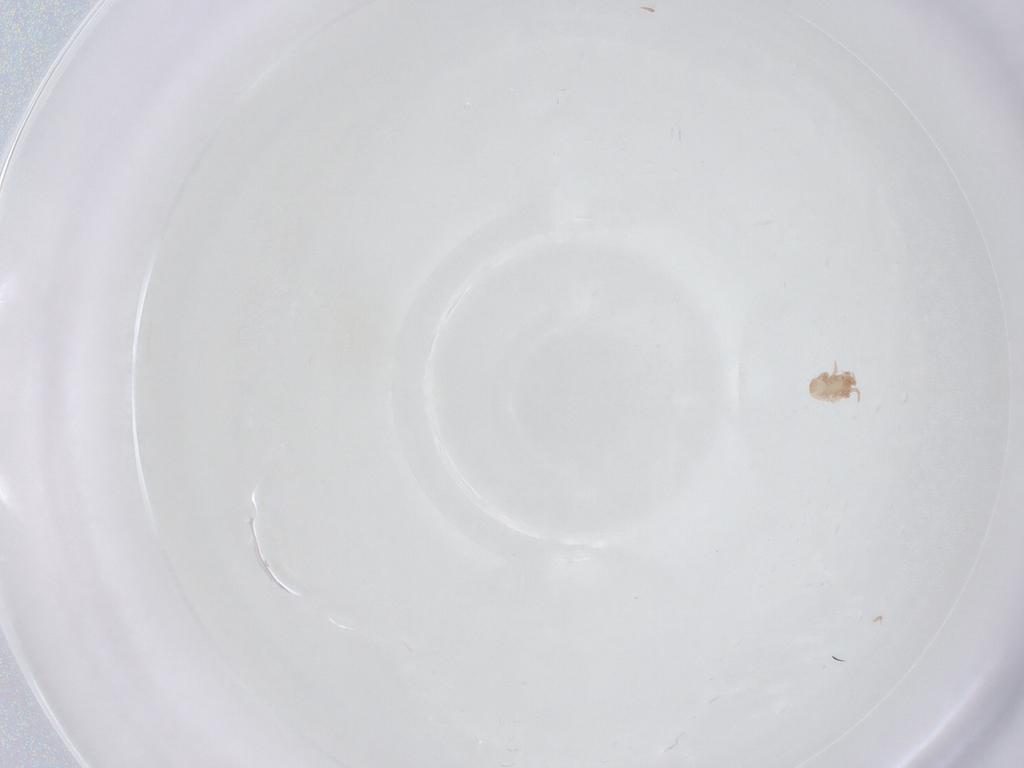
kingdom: Animalia
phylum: Arthropoda
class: Arachnida
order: Mesostigmata
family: Digamasellidae
